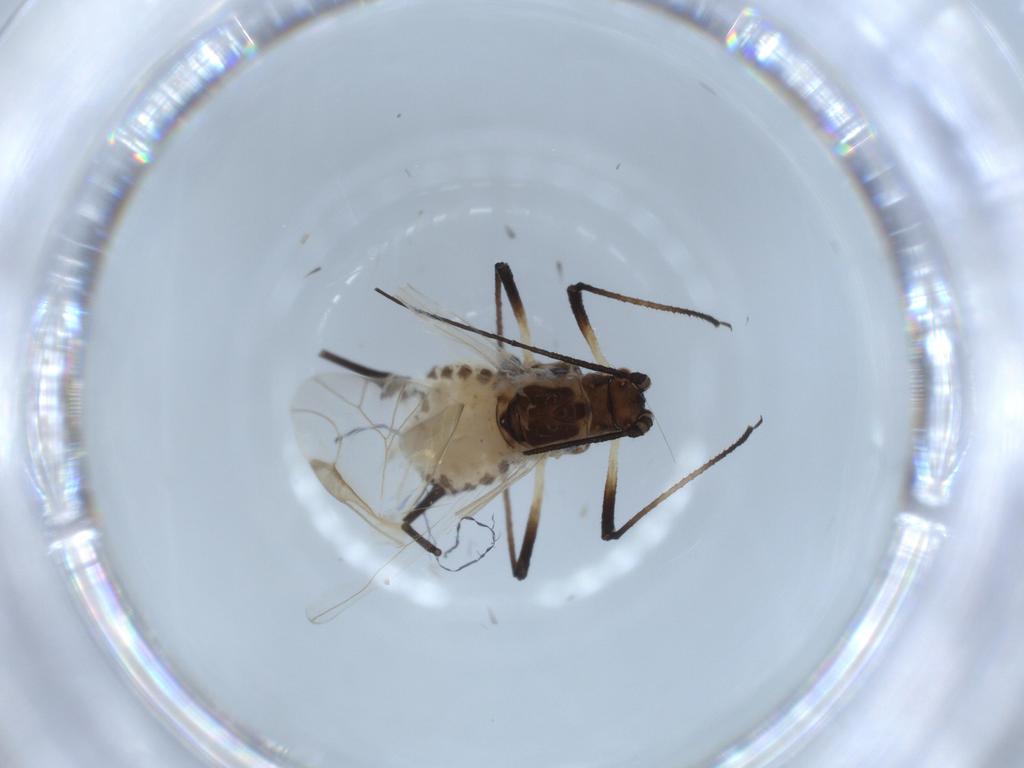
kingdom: Animalia
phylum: Arthropoda
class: Insecta
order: Hemiptera
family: Aphididae
